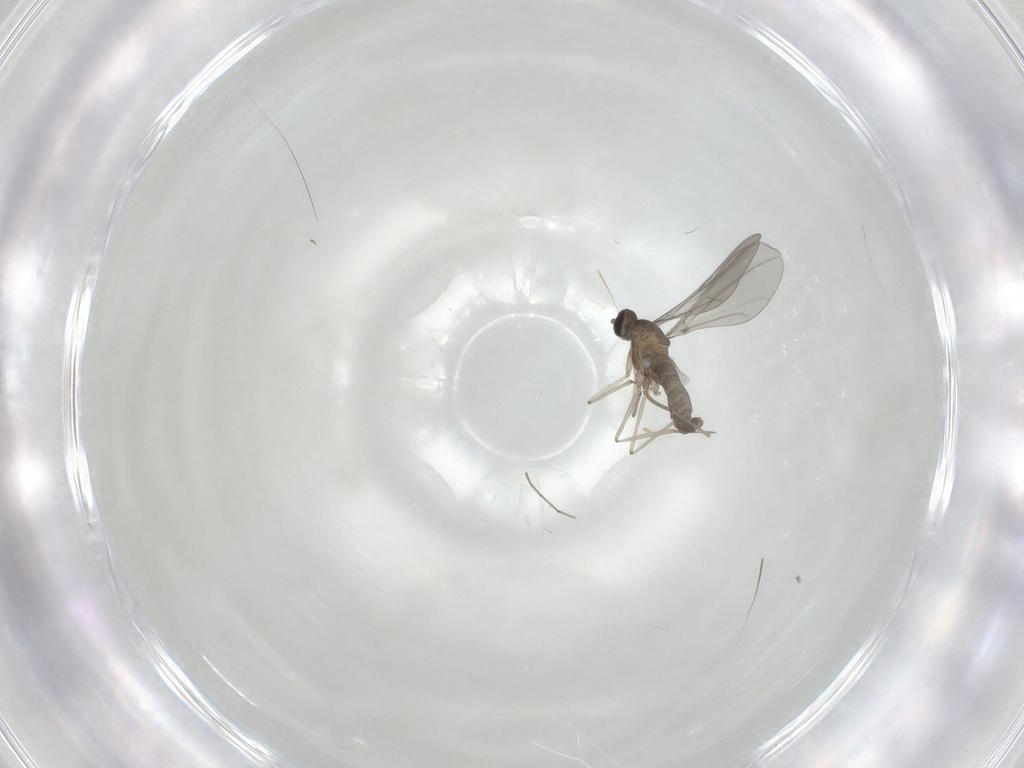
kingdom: Animalia
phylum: Arthropoda
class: Insecta
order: Diptera
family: Cecidomyiidae
